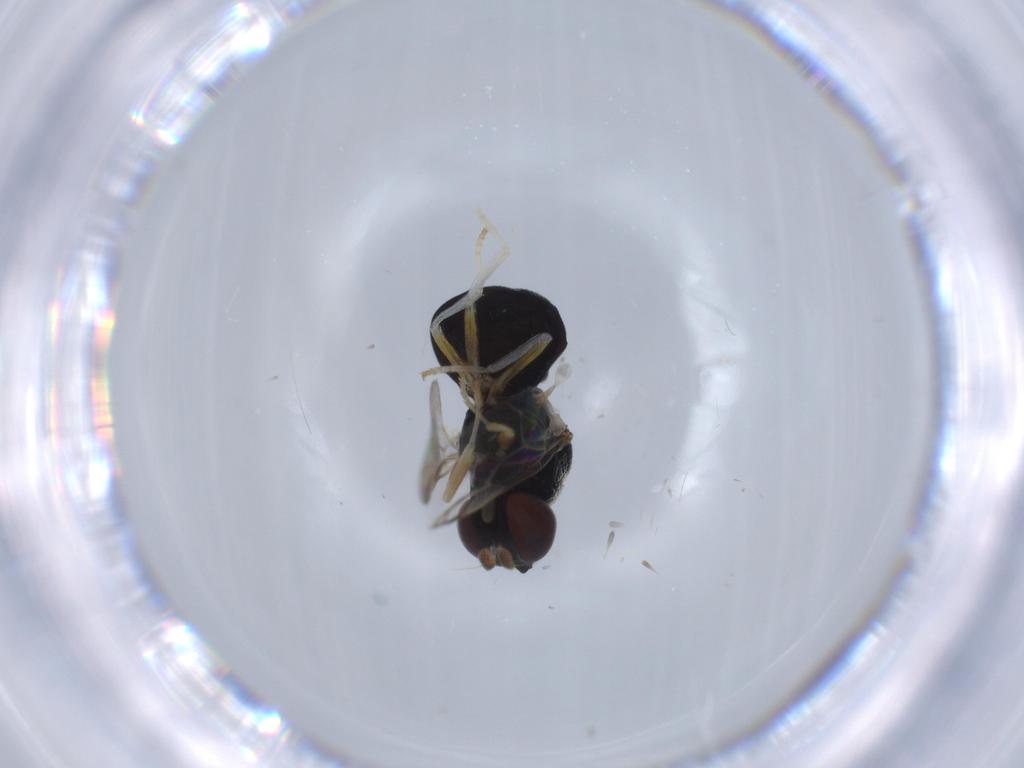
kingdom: Animalia
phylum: Arthropoda
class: Insecta
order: Diptera
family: Stratiomyidae
